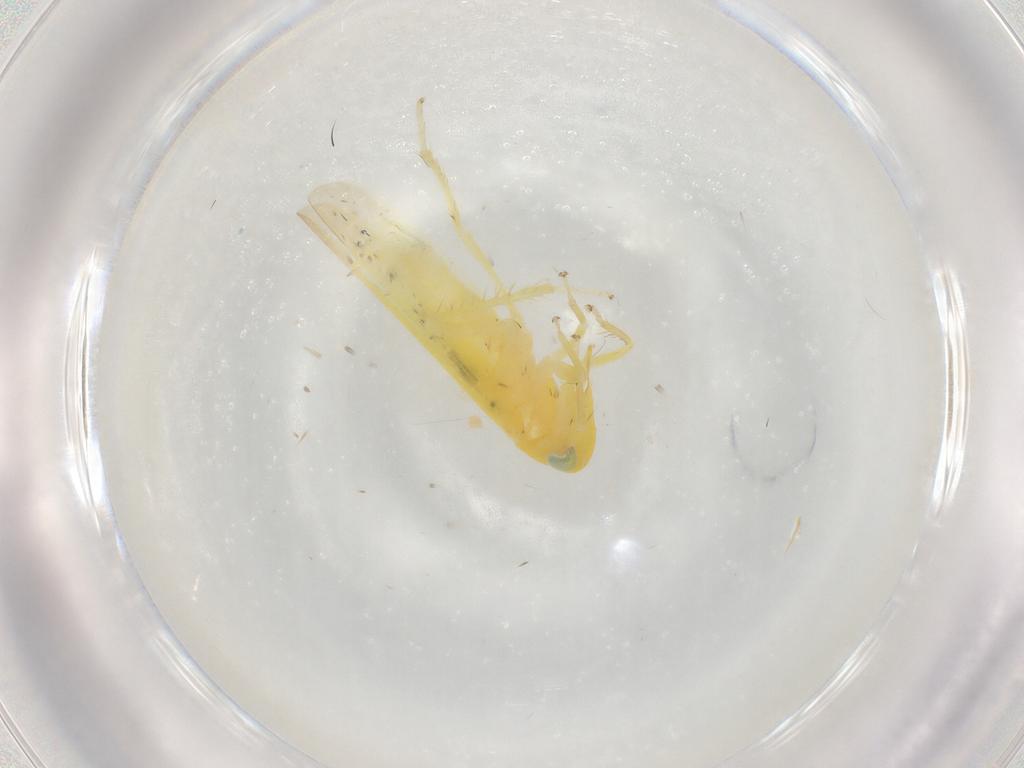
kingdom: Animalia
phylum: Arthropoda
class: Insecta
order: Hemiptera
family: Cicadellidae
